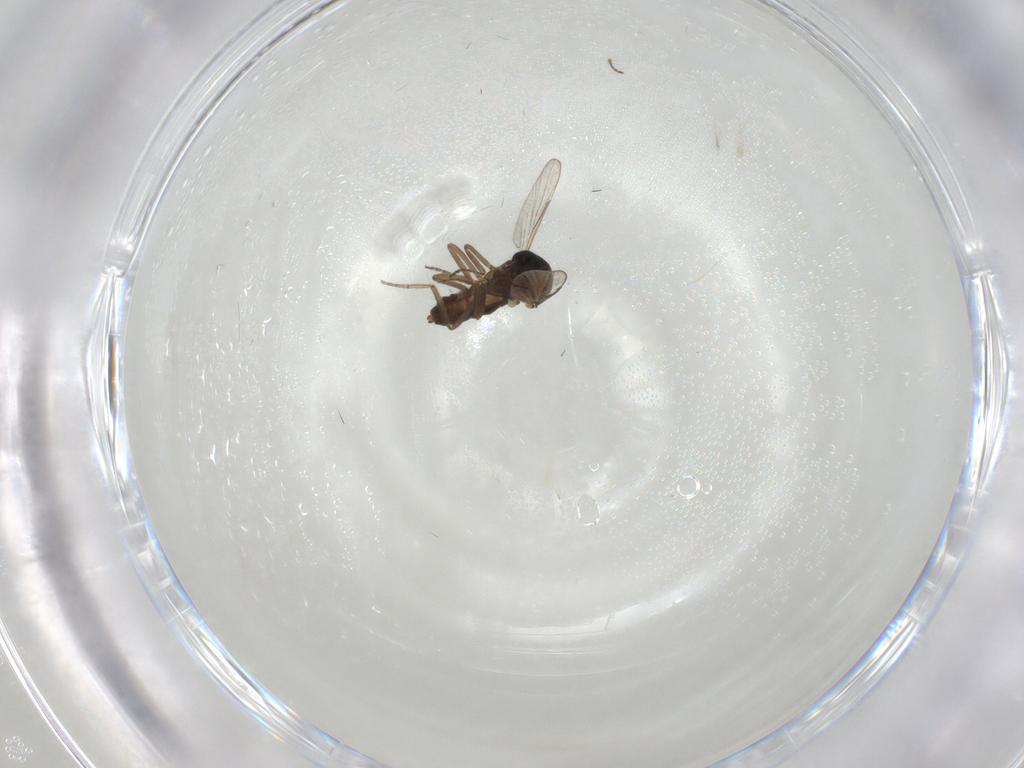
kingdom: Animalia
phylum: Arthropoda
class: Insecta
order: Diptera
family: Ceratopogonidae
